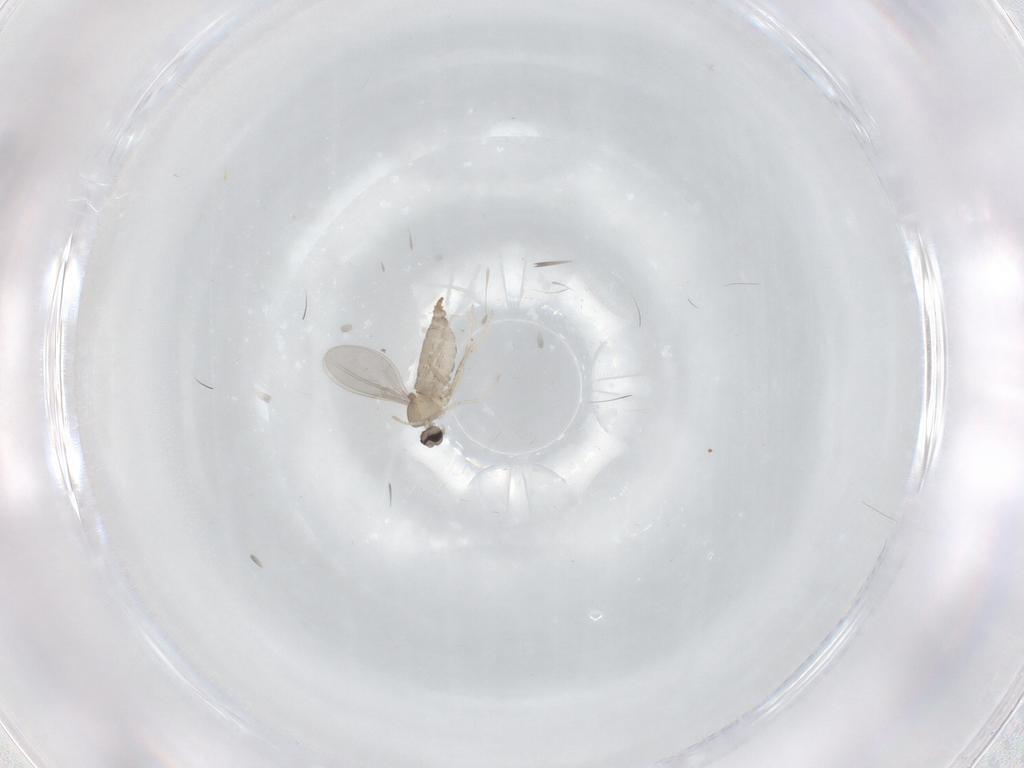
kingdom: Animalia
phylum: Arthropoda
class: Insecta
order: Diptera
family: Cecidomyiidae
